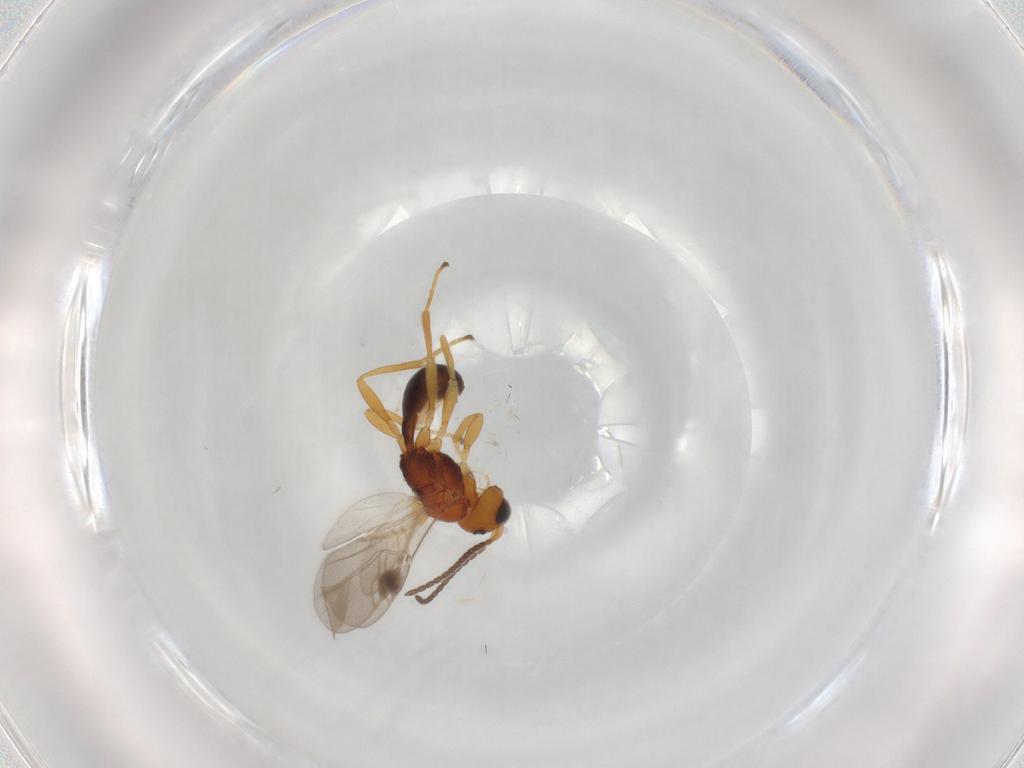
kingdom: Animalia
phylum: Arthropoda
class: Insecta
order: Hymenoptera
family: Braconidae
